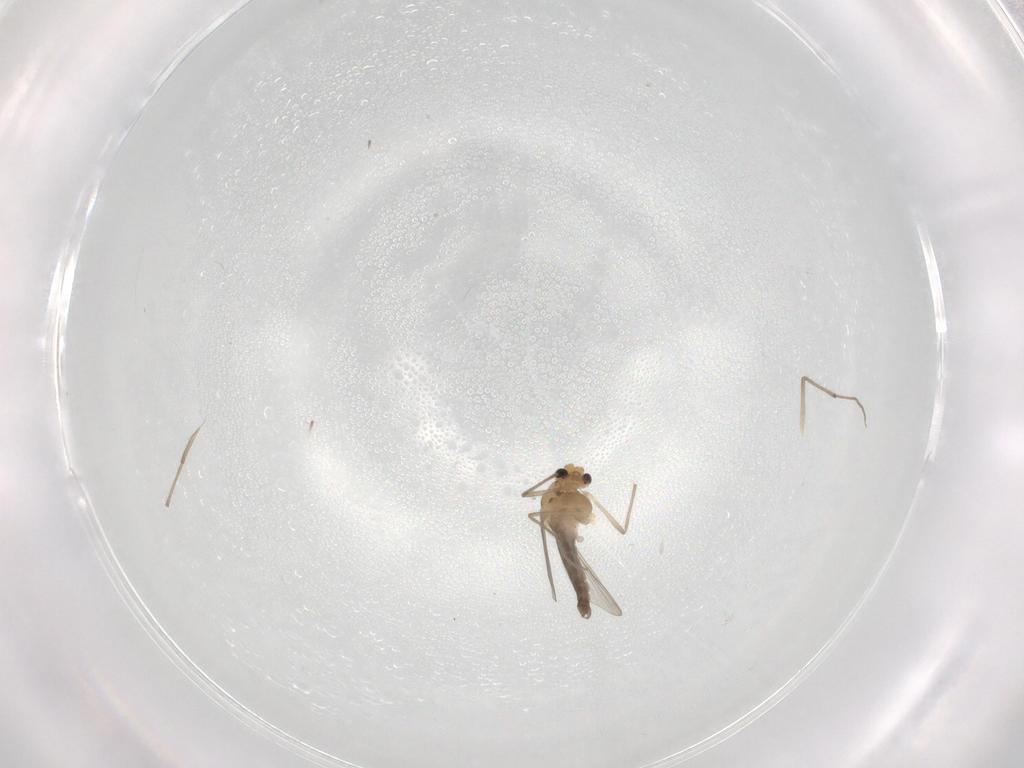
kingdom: Animalia
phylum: Arthropoda
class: Insecta
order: Diptera
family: Chironomidae
